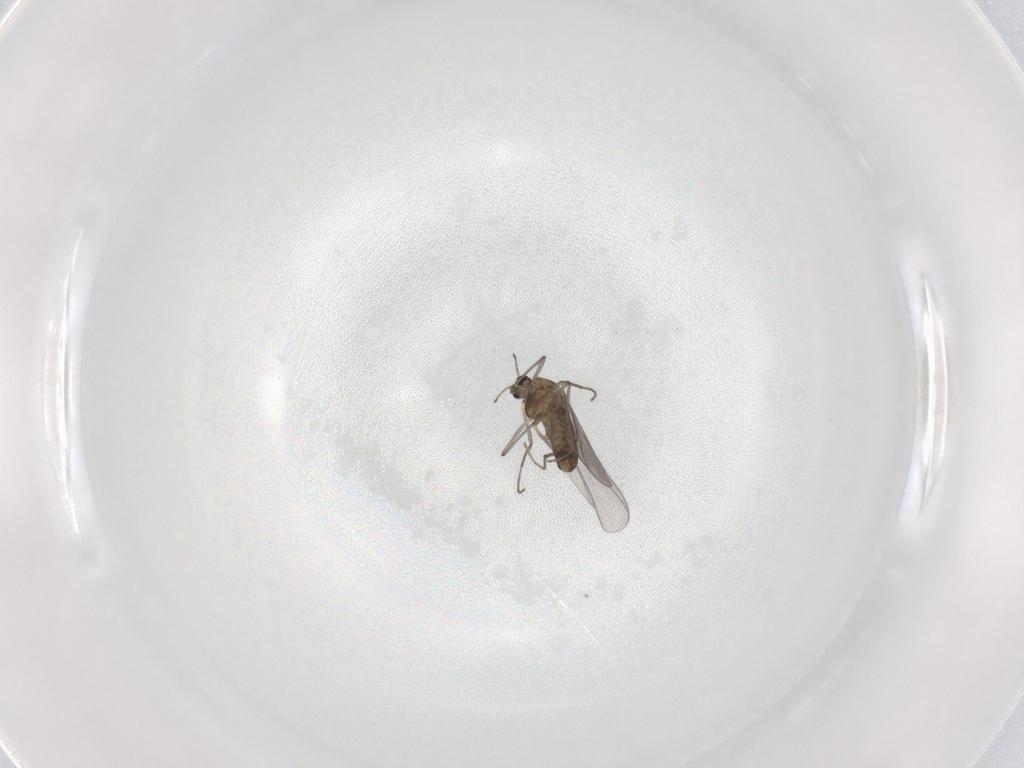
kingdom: Animalia
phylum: Arthropoda
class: Insecta
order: Diptera
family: Chironomidae
